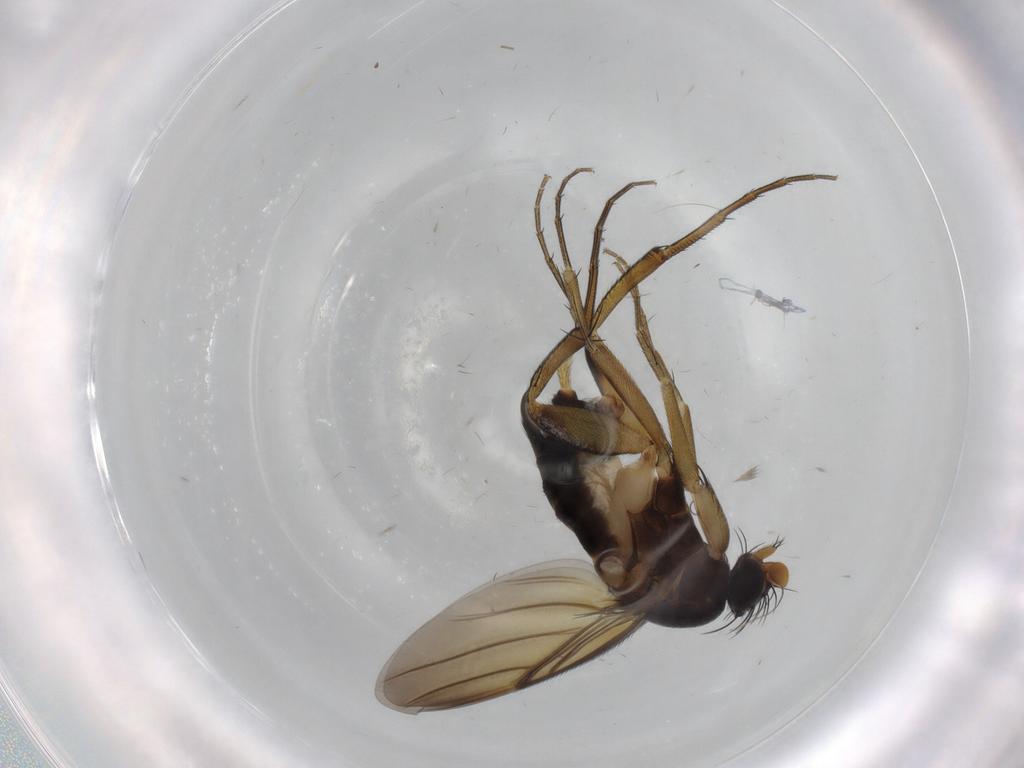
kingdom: Animalia
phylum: Arthropoda
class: Insecta
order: Diptera
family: Phoridae
